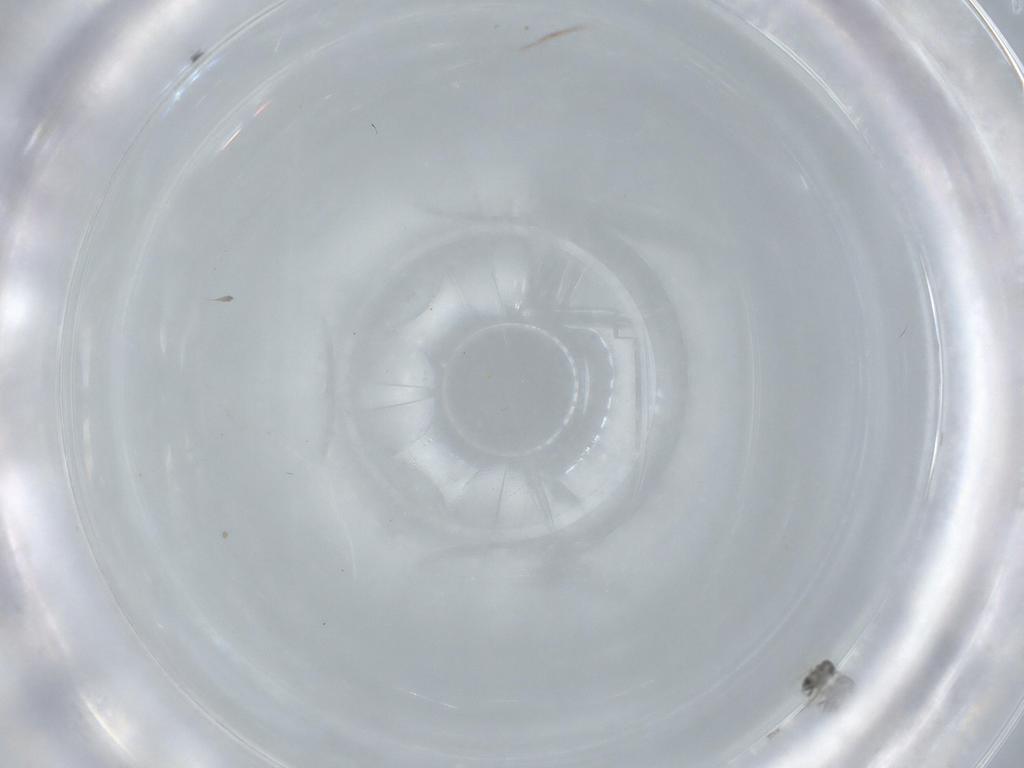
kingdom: Animalia
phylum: Arthropoda
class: Insecta
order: Hymenoptera
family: Mymaridae
